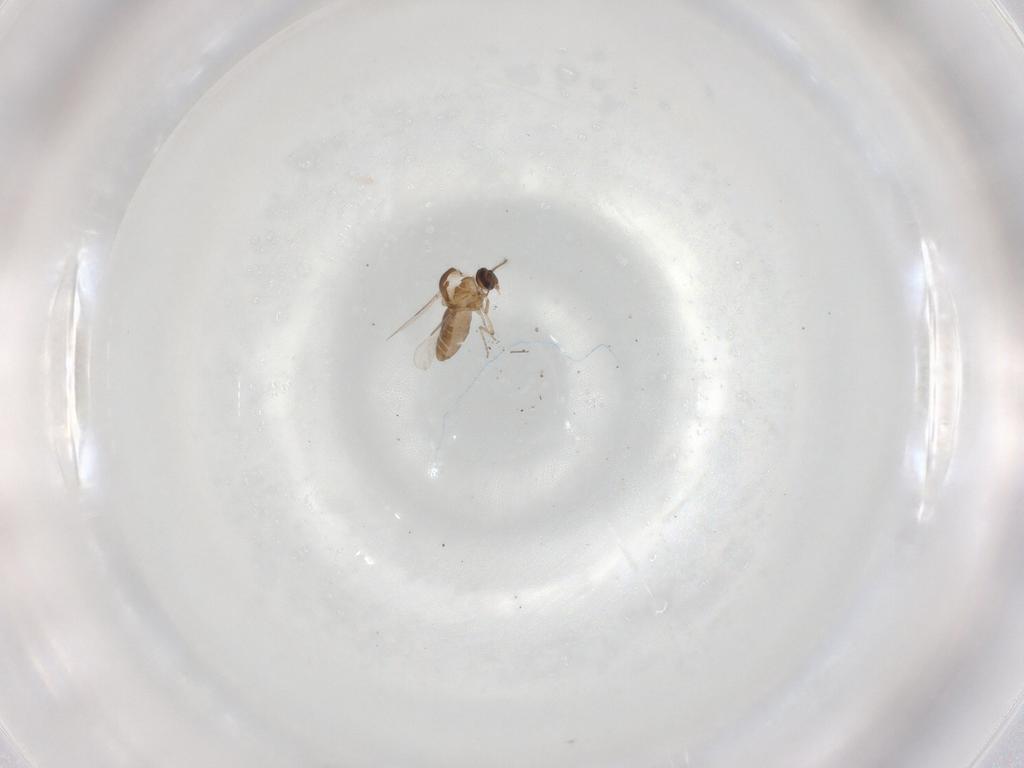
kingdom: Animalia
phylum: Arthropoda
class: Insecta
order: Diptera
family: Ceratopogonidae
